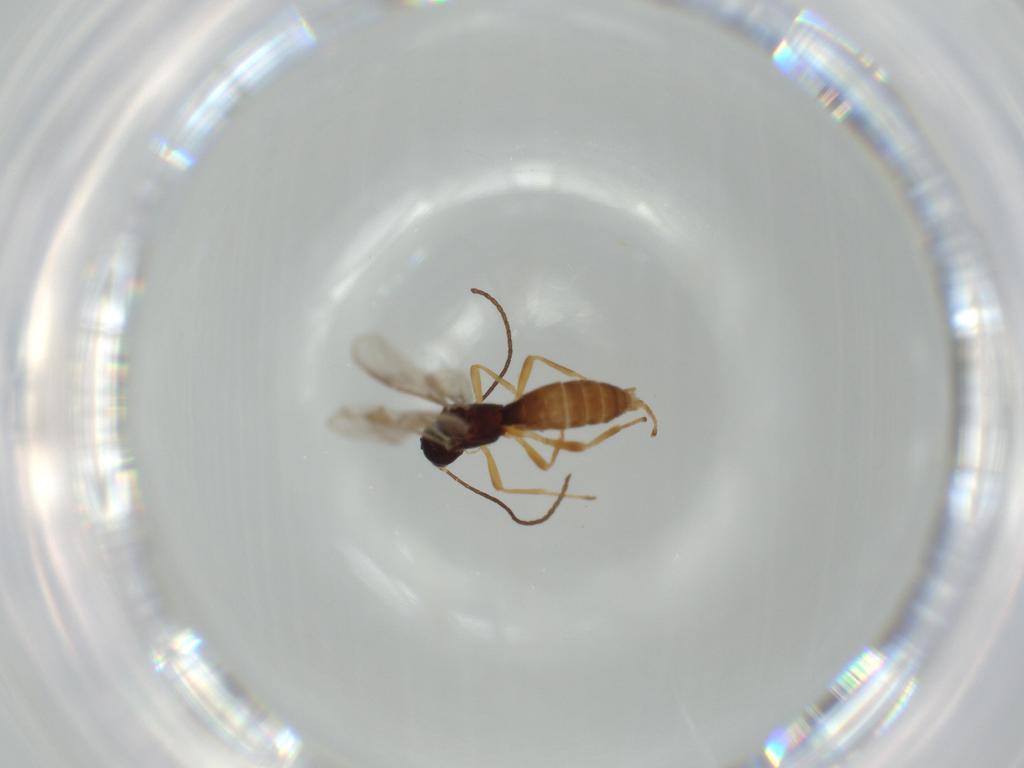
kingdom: Animalia
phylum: Arthropoda
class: Insecta
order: Hymenoptera
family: Braconidae
